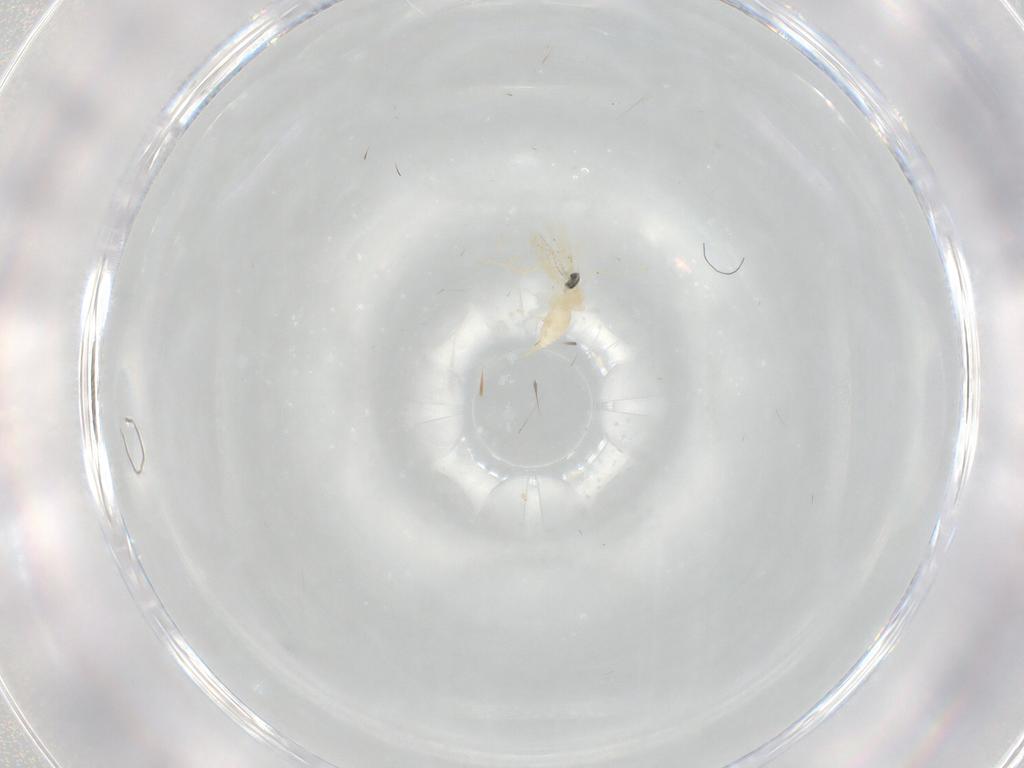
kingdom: Animalia
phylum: Arthropoda
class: Insecta
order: Diptera
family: Cecidomyiidae
